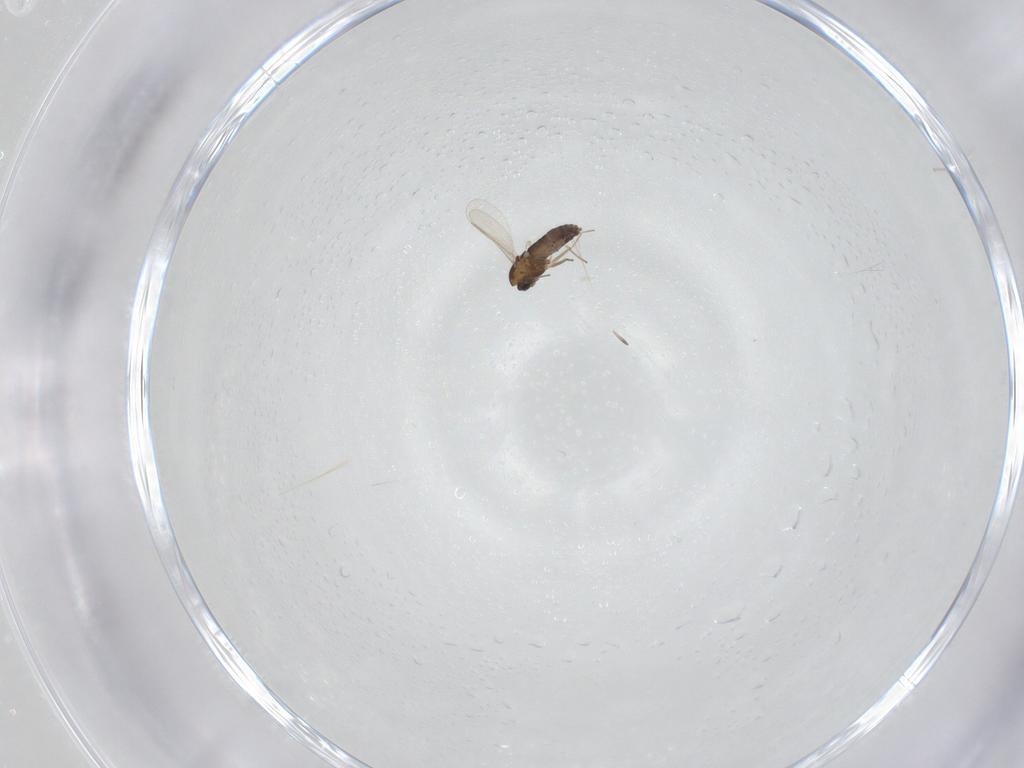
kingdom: Animalia
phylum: Arthropoda
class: Insecta
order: Diptera
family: Chironomidae
